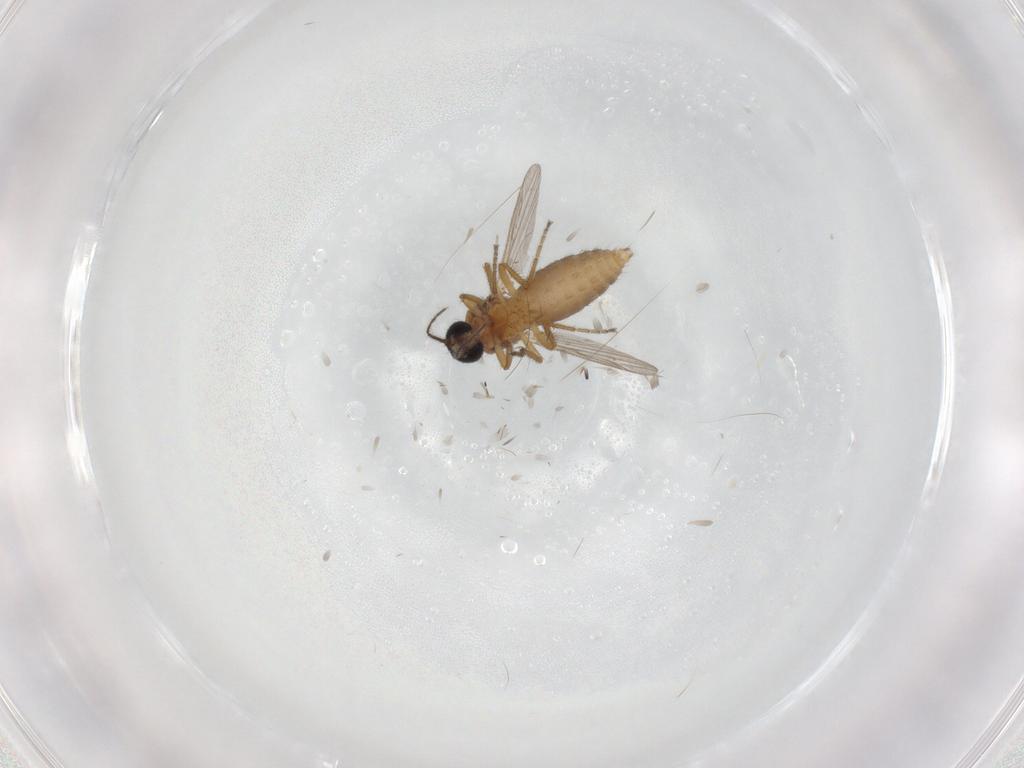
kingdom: Animalia
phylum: Arthropoda
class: Insecta
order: Diptera
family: Ceratopogonidae
